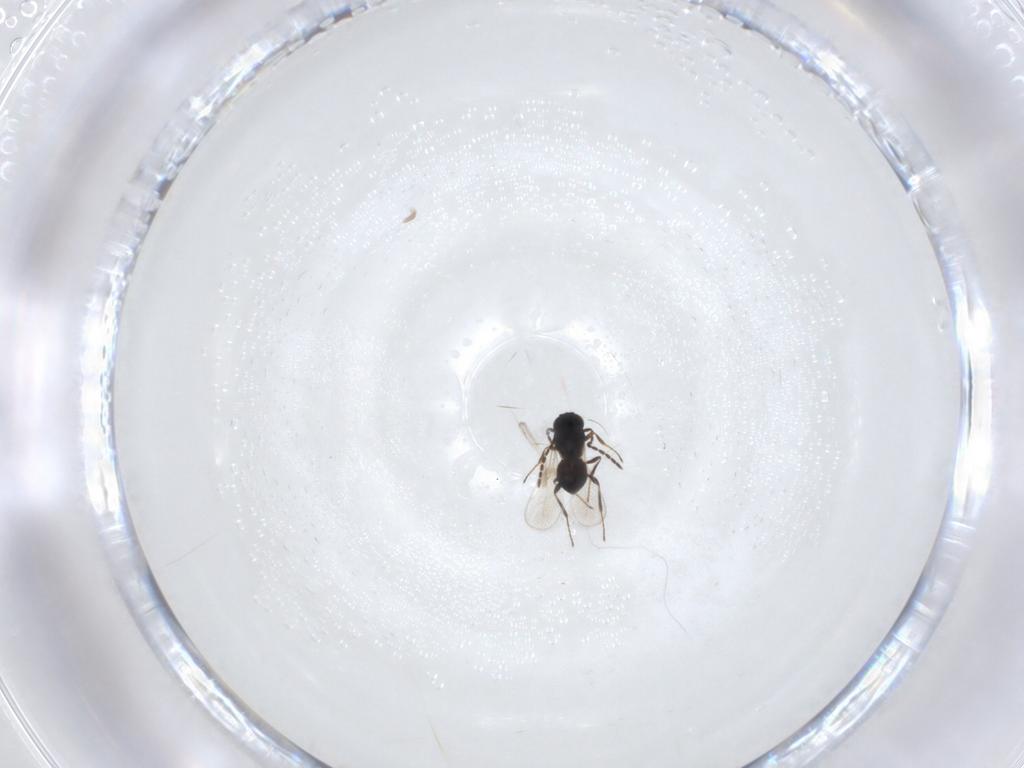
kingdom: Animalia
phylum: Arthropoda
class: Insecta
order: Hymenoptera
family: Platygastridae
